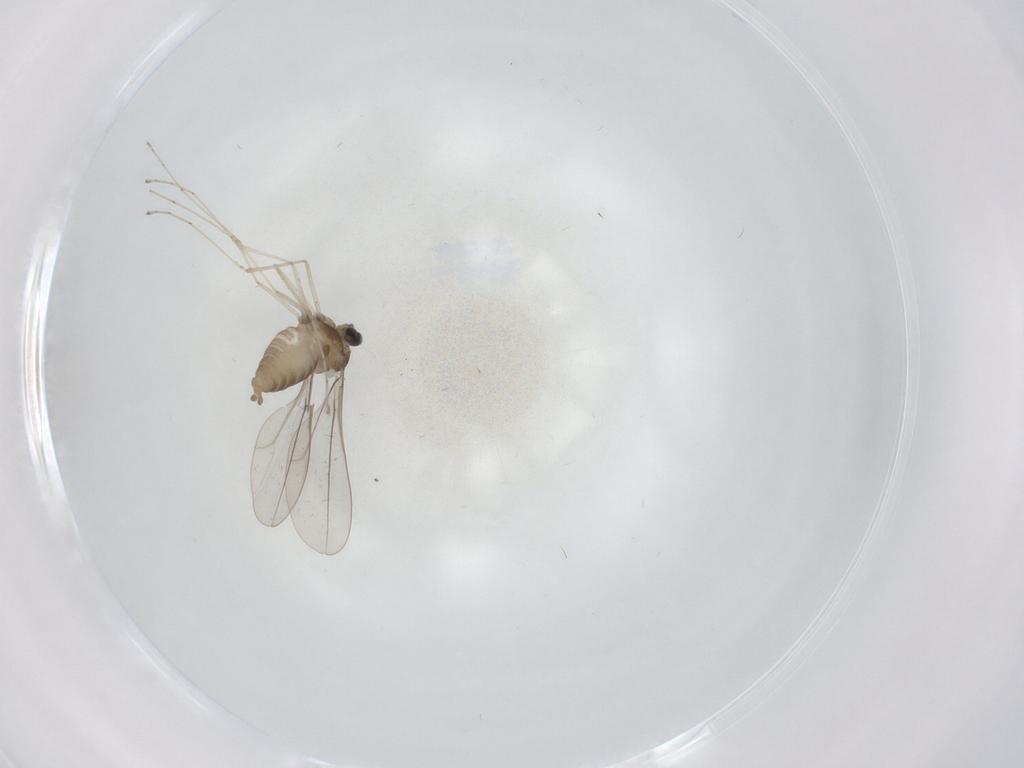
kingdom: Animalia
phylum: Arthropoda
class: Insecta
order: Diptera
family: Cecidomyiidae
